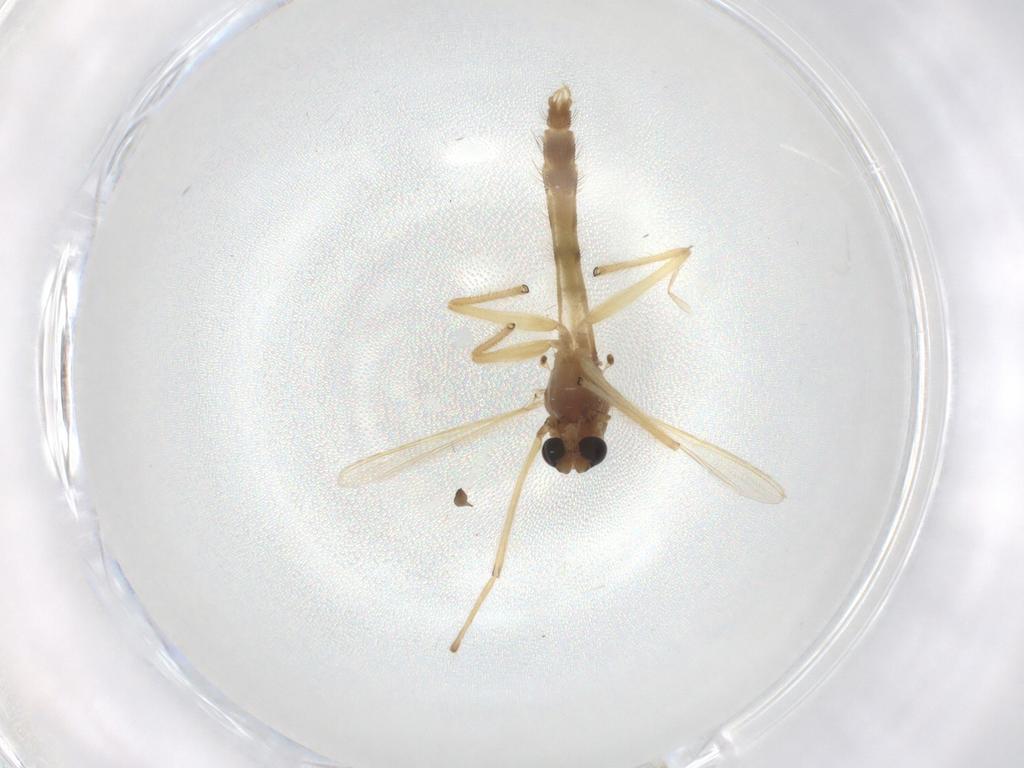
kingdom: Animalia
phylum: Arthropoda
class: Insecta
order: Diptera
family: Chironomidae
